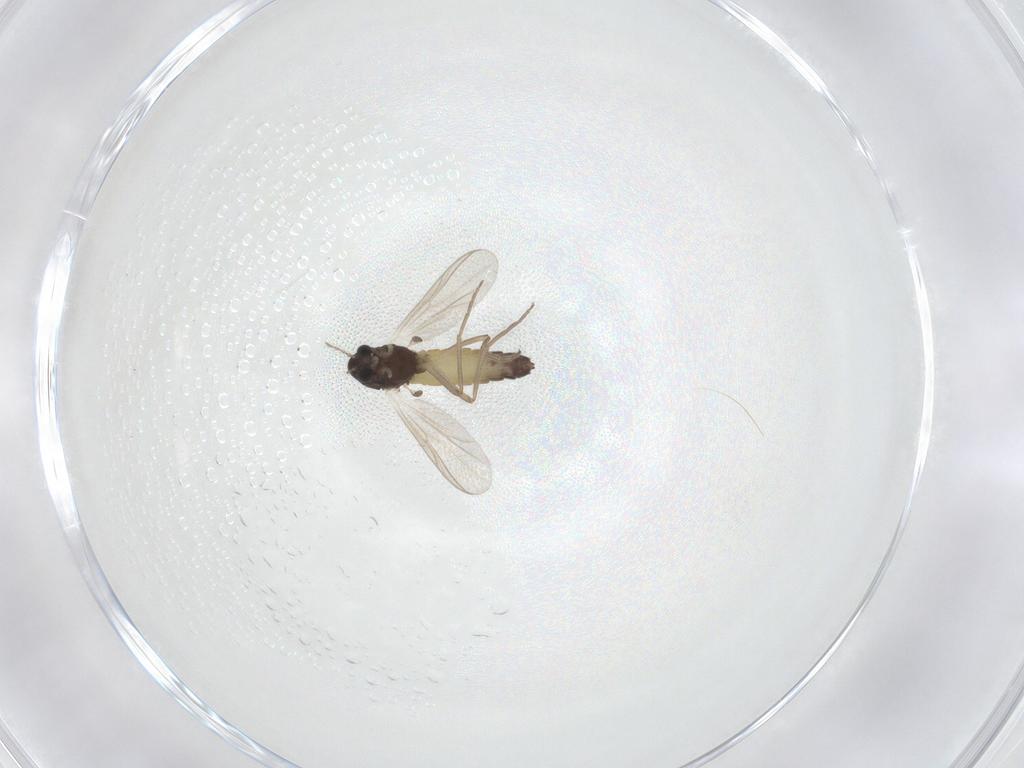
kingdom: Animalia
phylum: Arthropoda
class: Insecta
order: Diptera
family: Chironomidae
